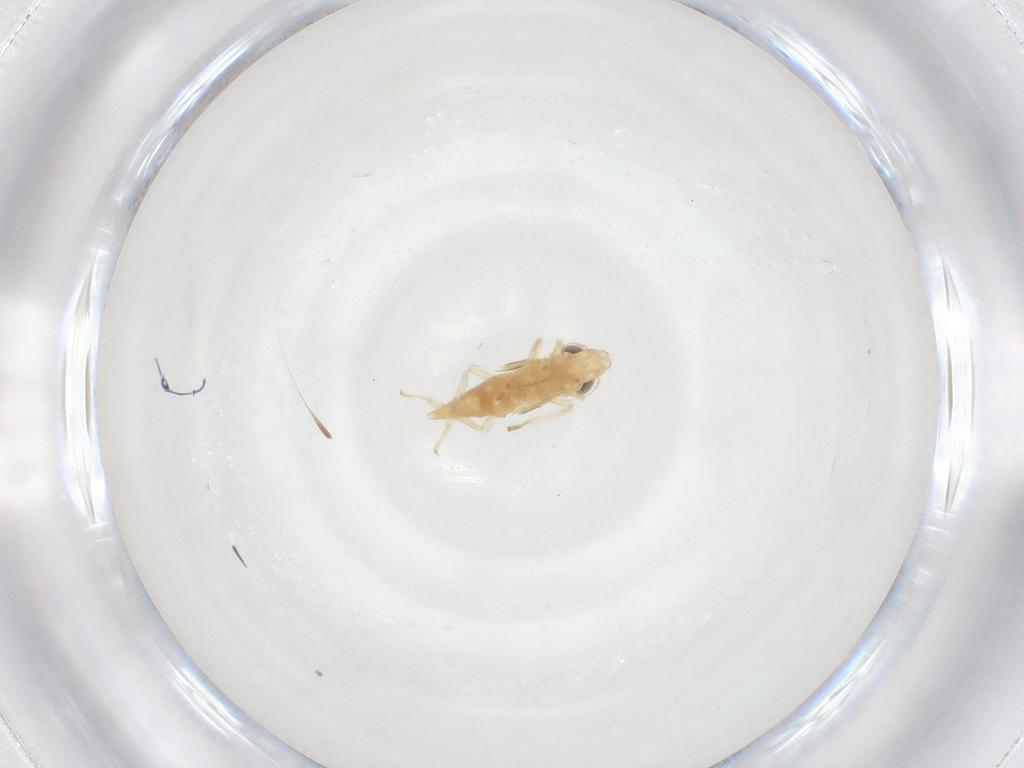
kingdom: Animalia
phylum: Arthropoda
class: Insecta
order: Hemiptera
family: Cicadellidae
